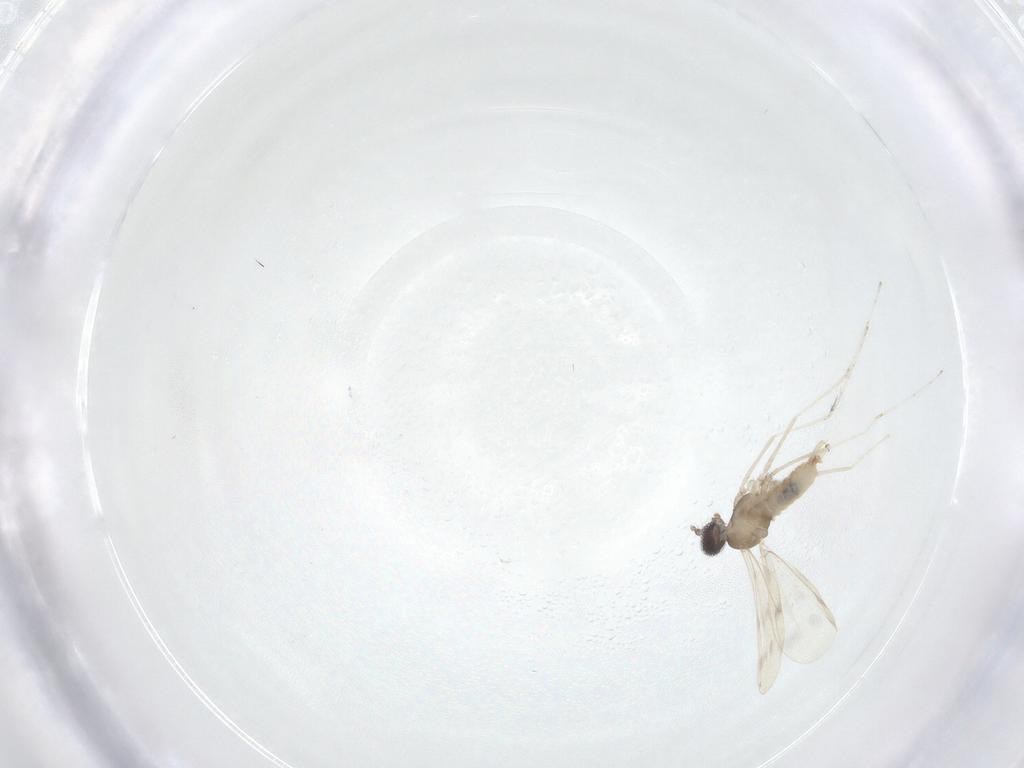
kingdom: Animalia
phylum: Arthropoda
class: Insecta
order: Diptera
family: Cecidomyiidae
